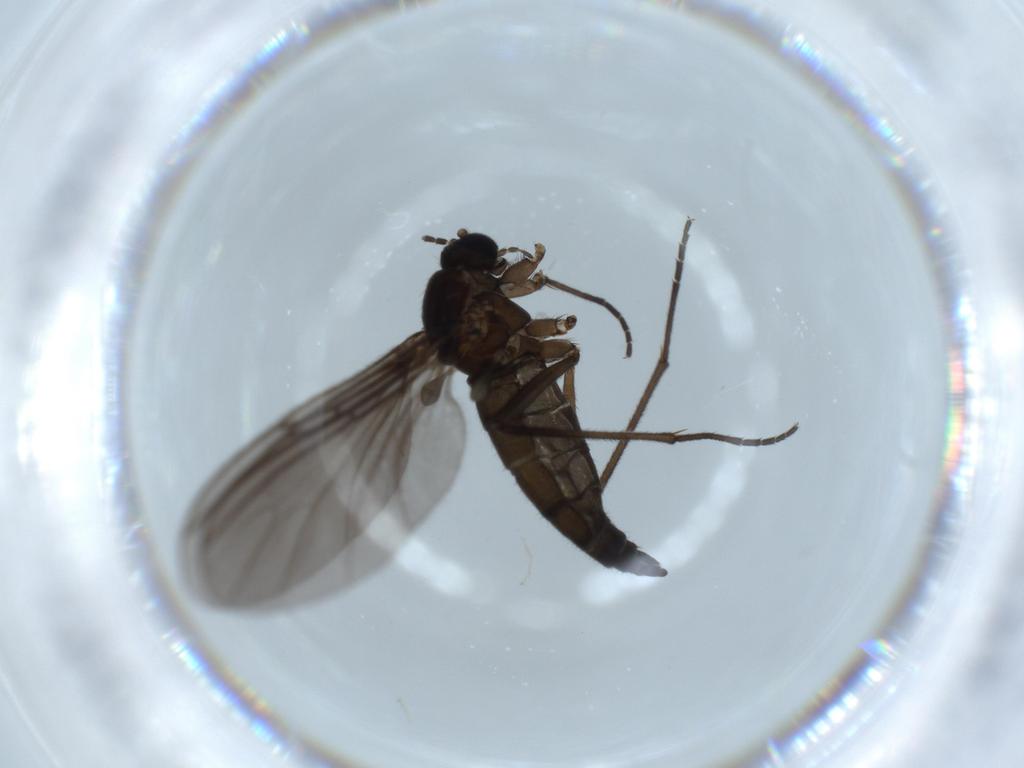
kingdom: Animalia
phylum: Arthropoda
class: Insecta
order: Diptera
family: Sciaridae
